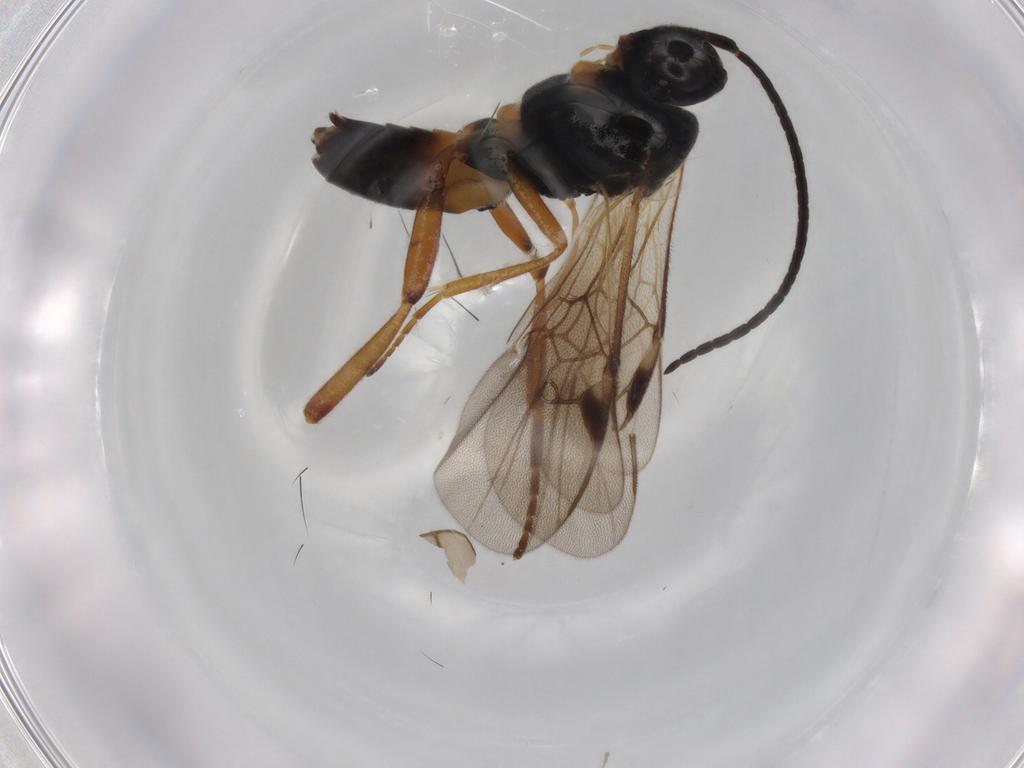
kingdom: Animalia
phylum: Arthropoda
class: Insecta
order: Hymenoptera
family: Braconidae
